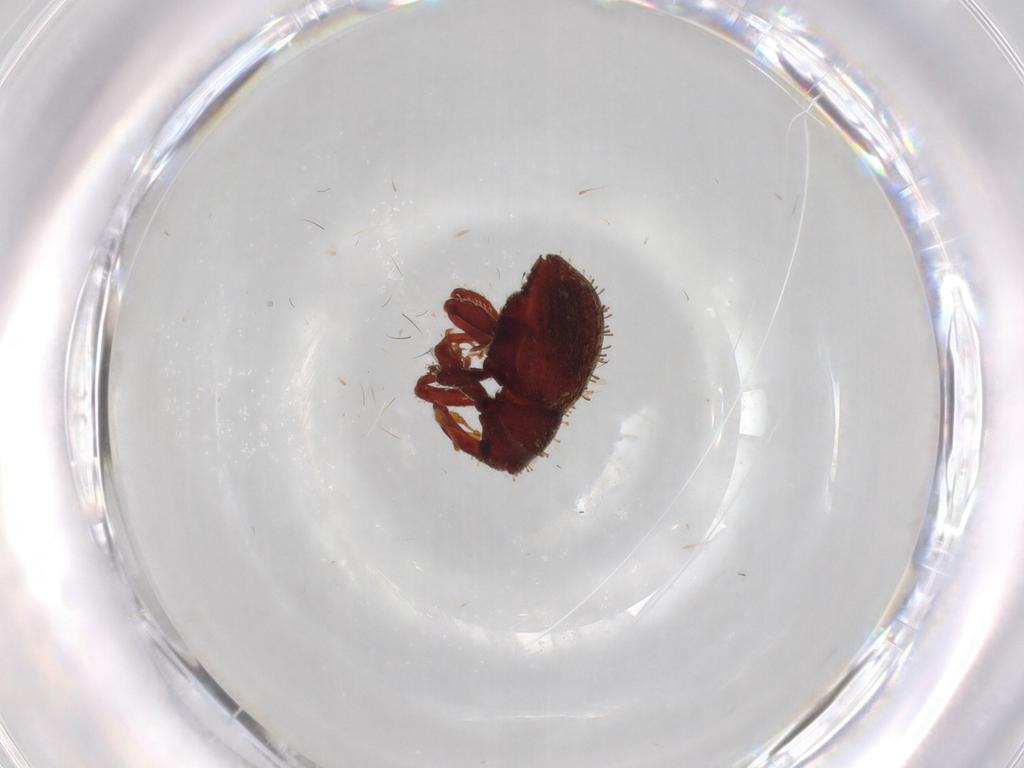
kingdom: Animalia
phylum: Arthropoda
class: Insecta
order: Coleoptera
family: Curculionidae
